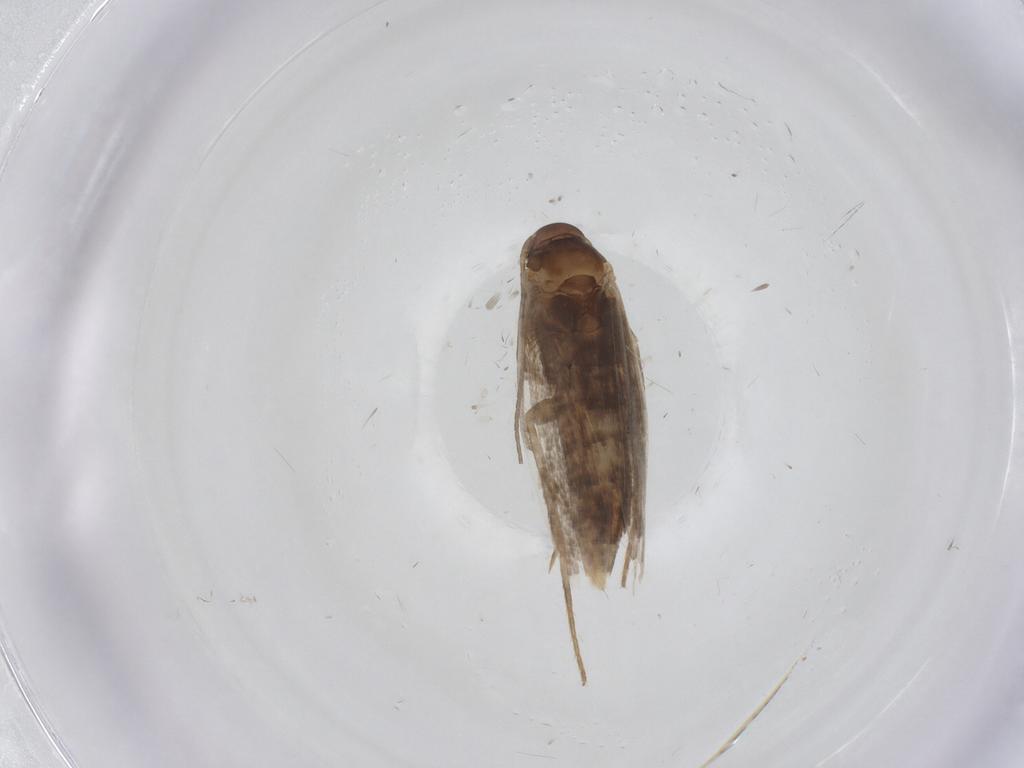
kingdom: Animalia
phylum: Arthropoda
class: Insecta
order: Lepidoptera
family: Elachistidae
